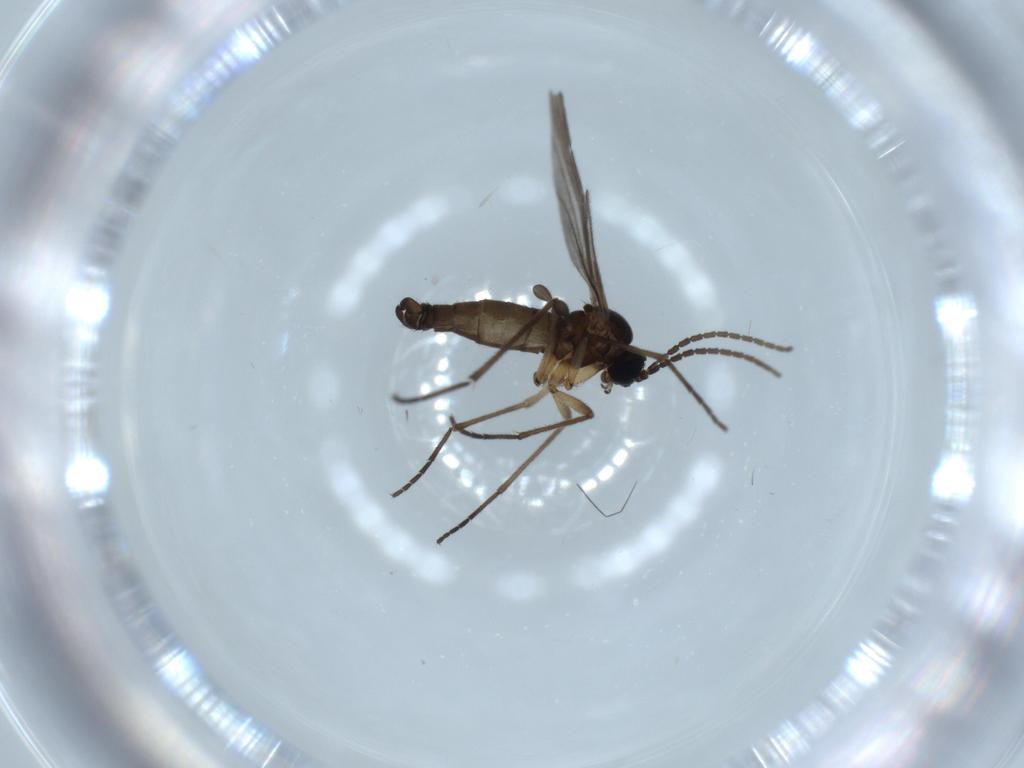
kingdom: Animalia
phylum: Arthropoda
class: Insecta
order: Diptera
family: Sciaridae
